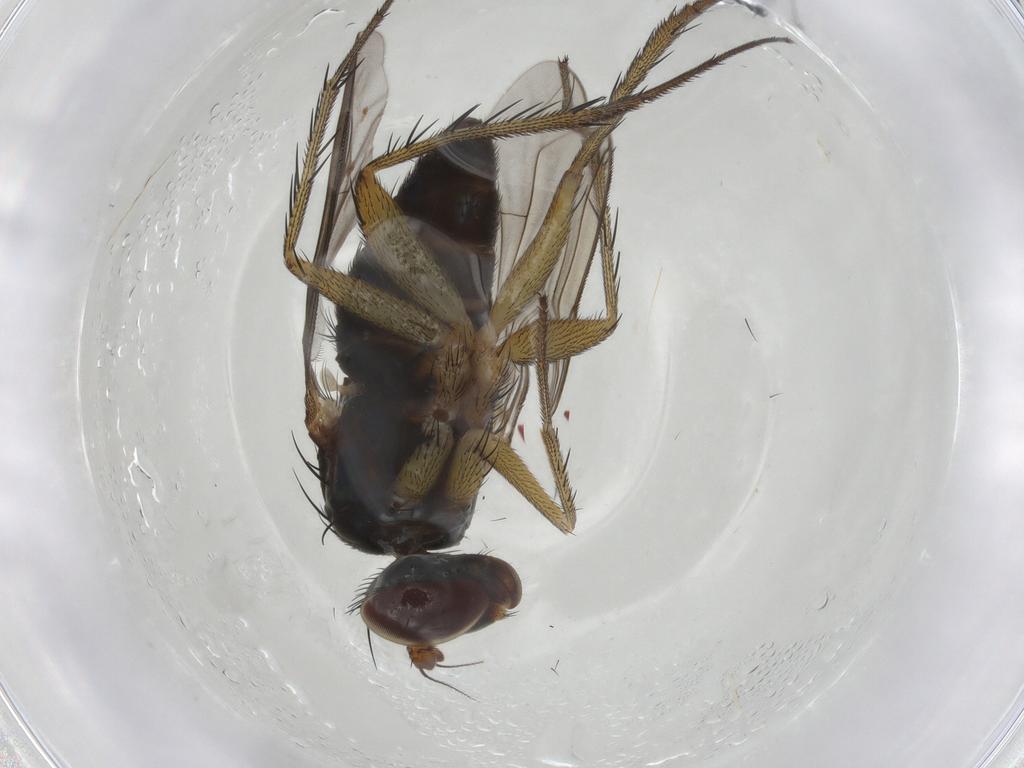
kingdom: Animalia
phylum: Arthropoda
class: Insecta
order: Diptera
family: Dolichopodidae
